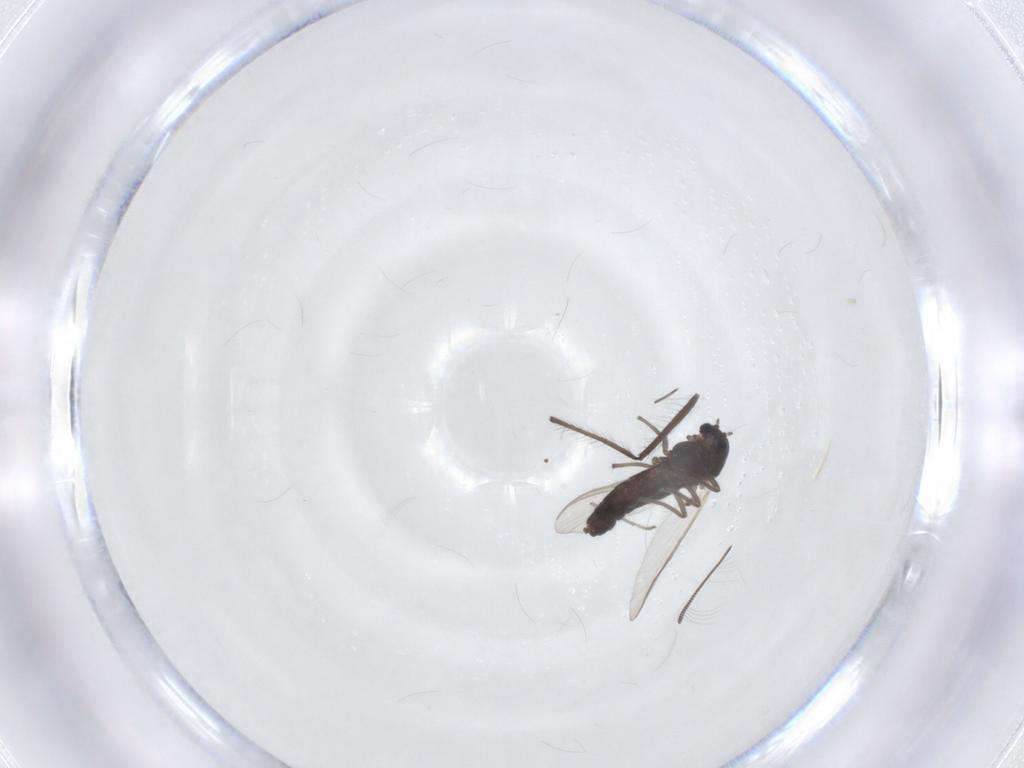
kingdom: Animalia
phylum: Arthropoda
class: Insecta
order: Diptera
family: Chironomidae
